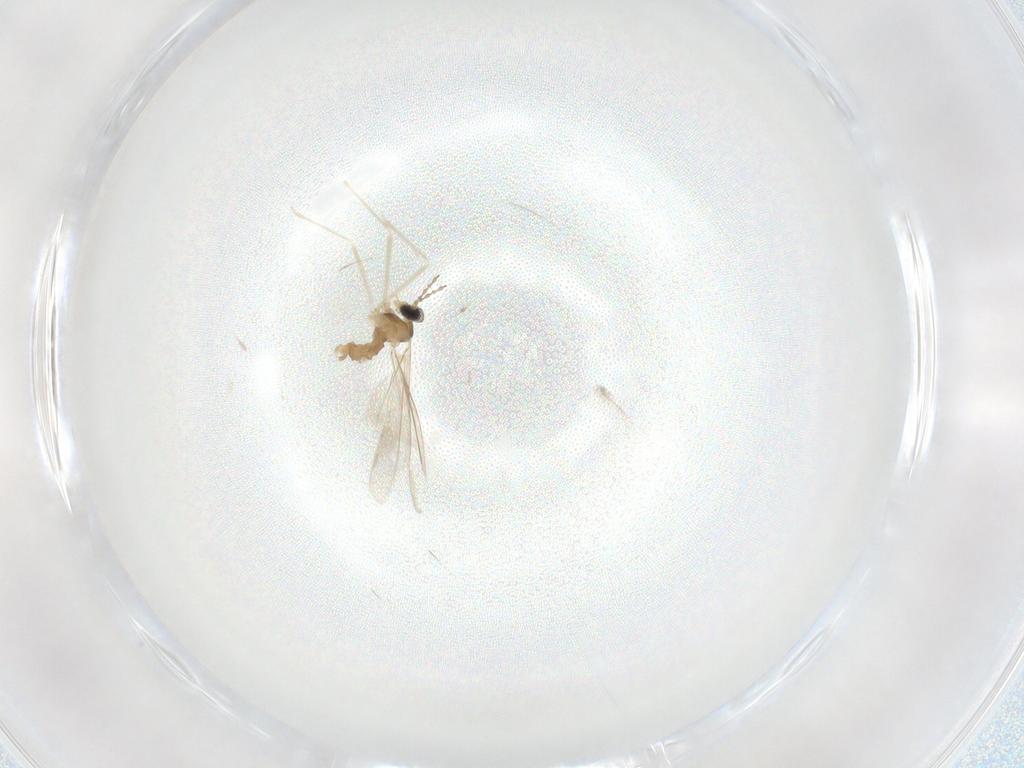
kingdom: Animalia
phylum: Arthropoda
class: Insecta
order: Diptera
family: Cecidomyiidae
